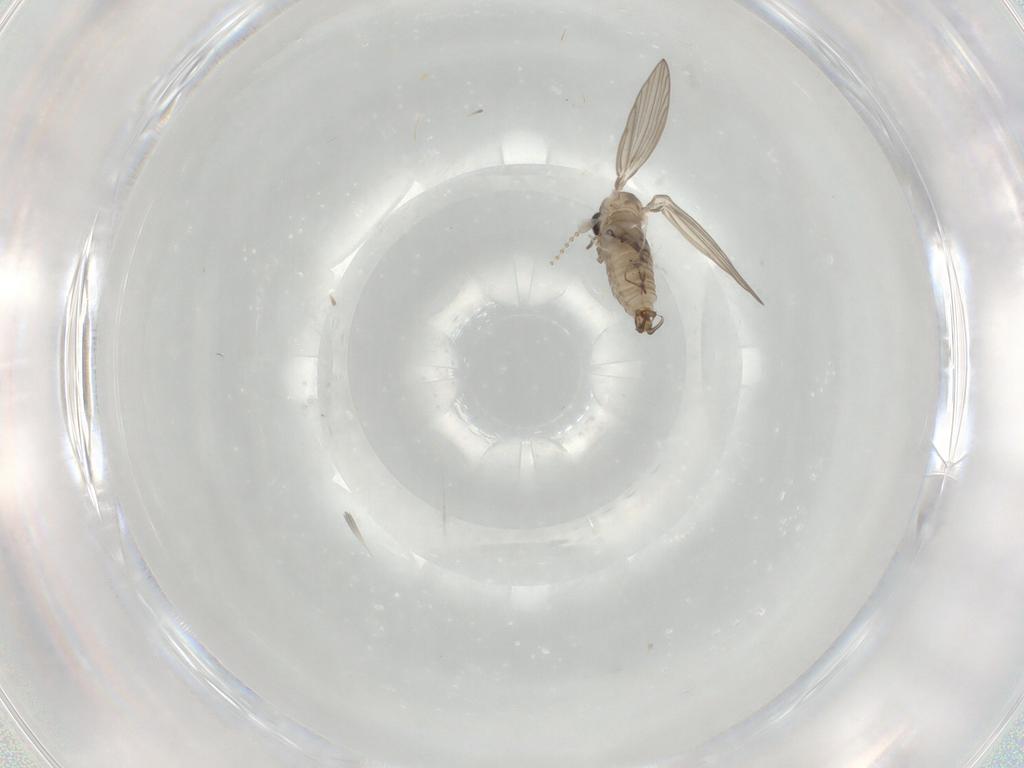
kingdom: Animalia
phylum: Arthropoda
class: Insecta
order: Diptera
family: Psychodidae
